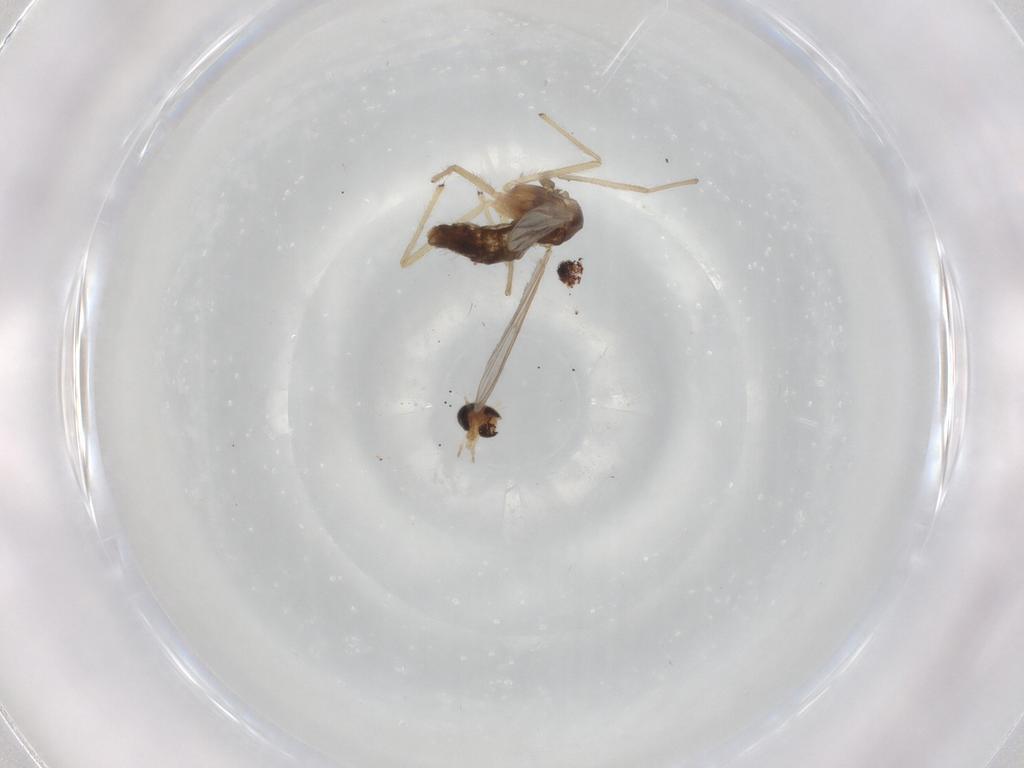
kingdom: Animalia
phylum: Arthropoda
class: Insecta
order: Diptera
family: Chironomidae
